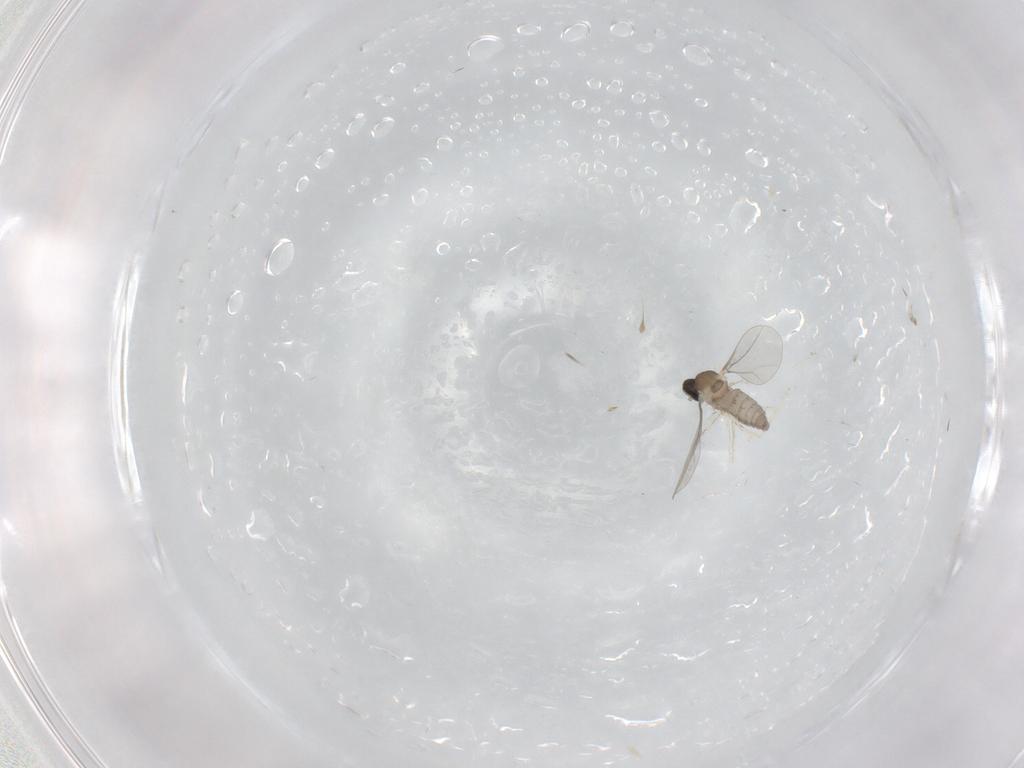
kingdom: Animalia
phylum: Arthropoda
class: Insecta
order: Diptera
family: Cecidomyiidae
